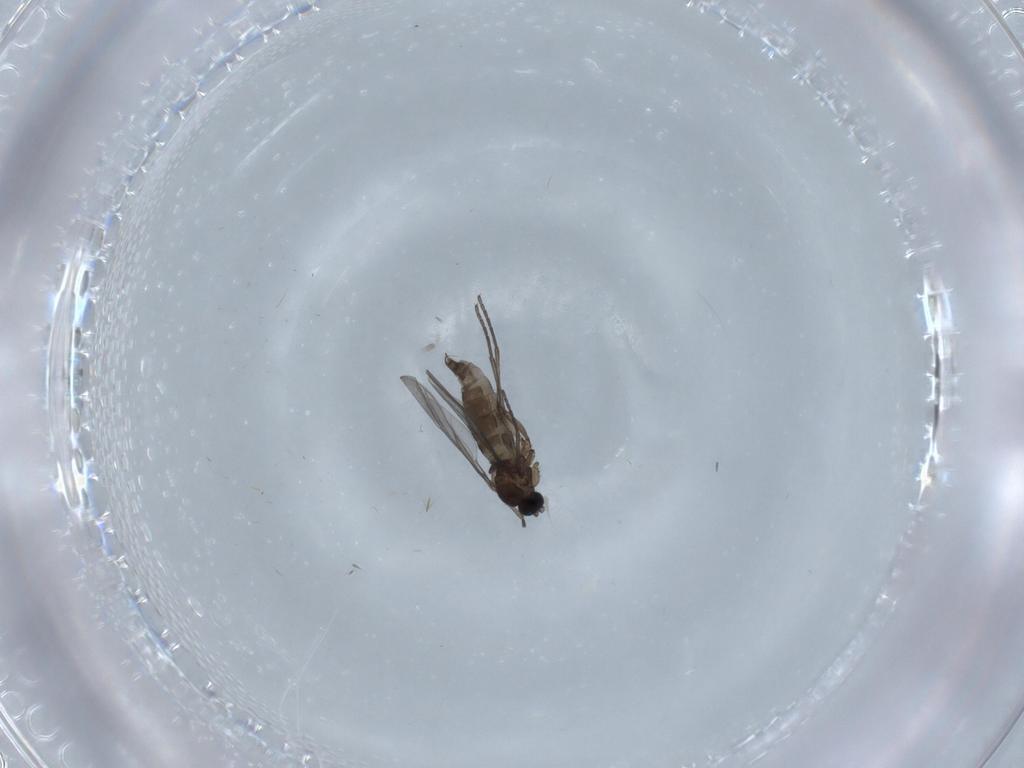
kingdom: Animalia
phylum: Arthropoda
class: Insecta
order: Diptera
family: Chironomidae
